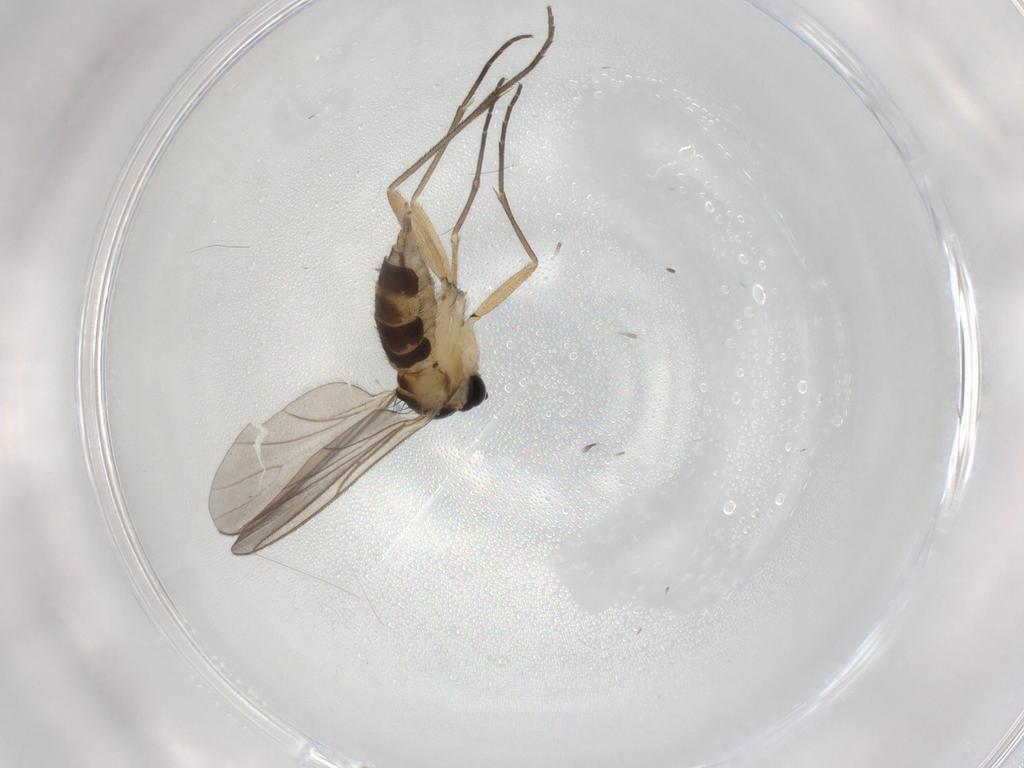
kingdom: Animalia
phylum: Arthropoda
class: Insecta
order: Diptera
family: Sciaridae
